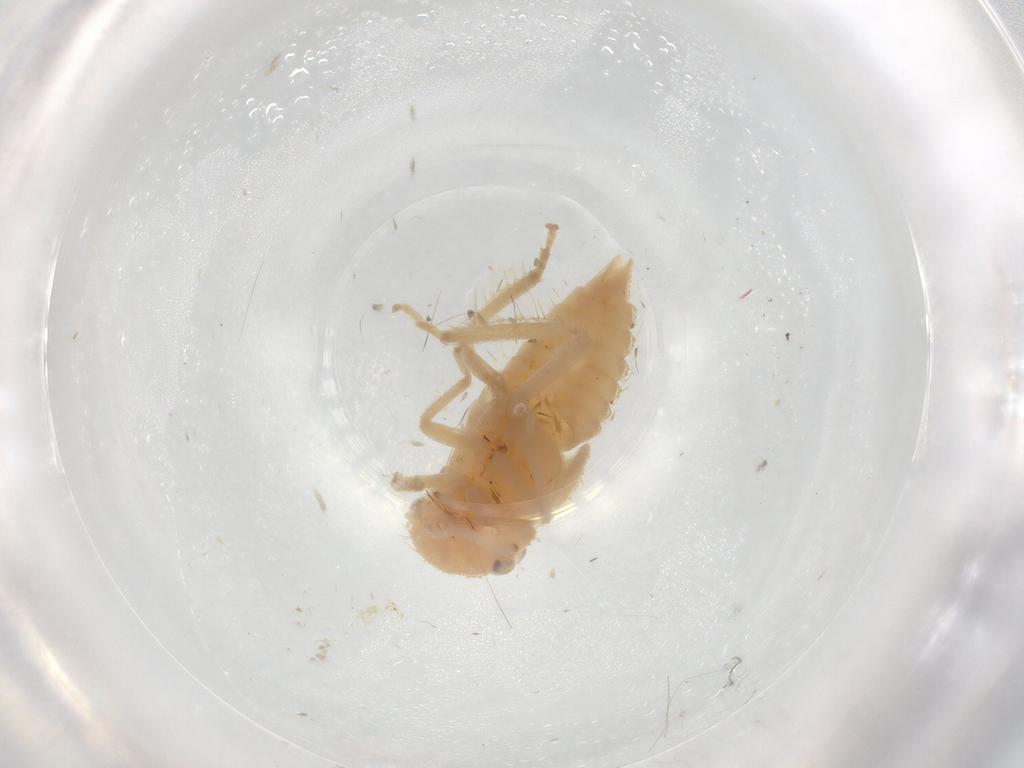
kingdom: Animalia
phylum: Arthropoda
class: Insecta
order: Hemiptera
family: Cicadellidae
